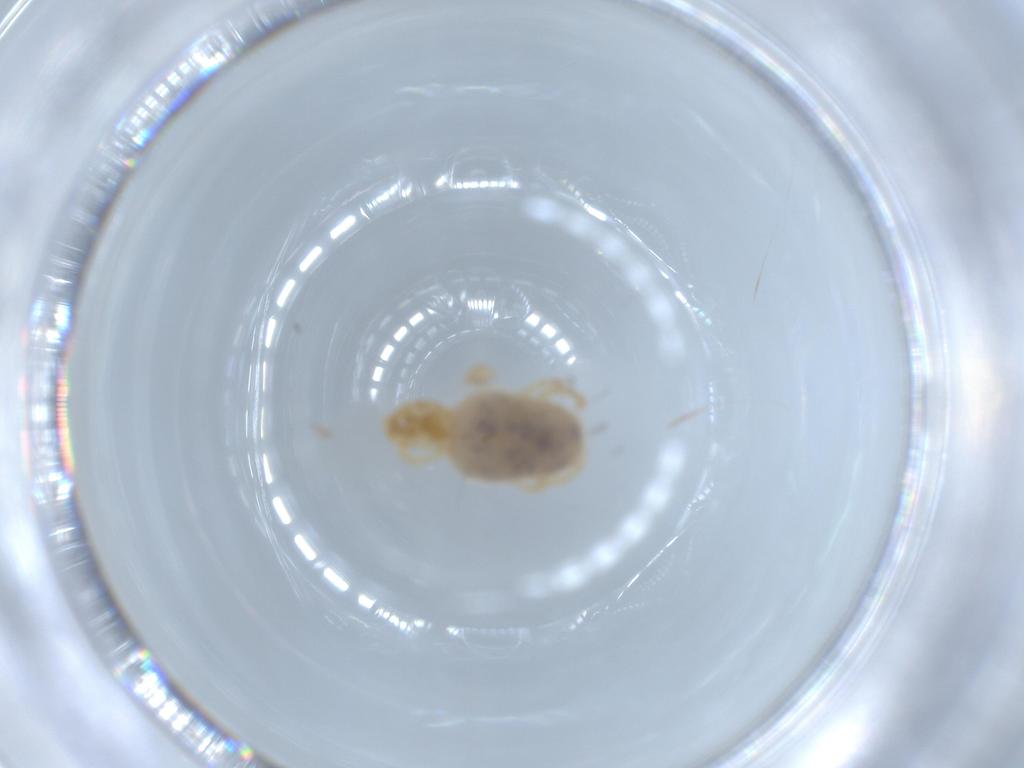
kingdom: Animalia
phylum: Arthropoda
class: Arachnida
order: Trombidiformes
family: Pygmephoridae
